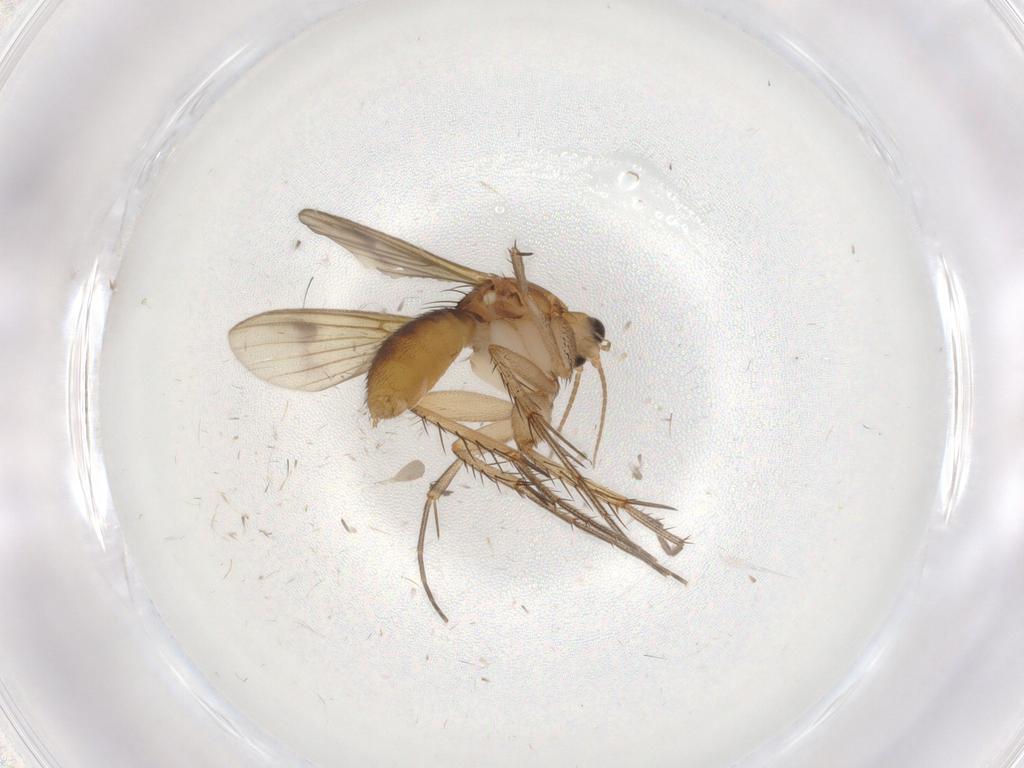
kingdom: Animalia
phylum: Arthropoda
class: Insecta
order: Diptera
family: Mycetophilidae
